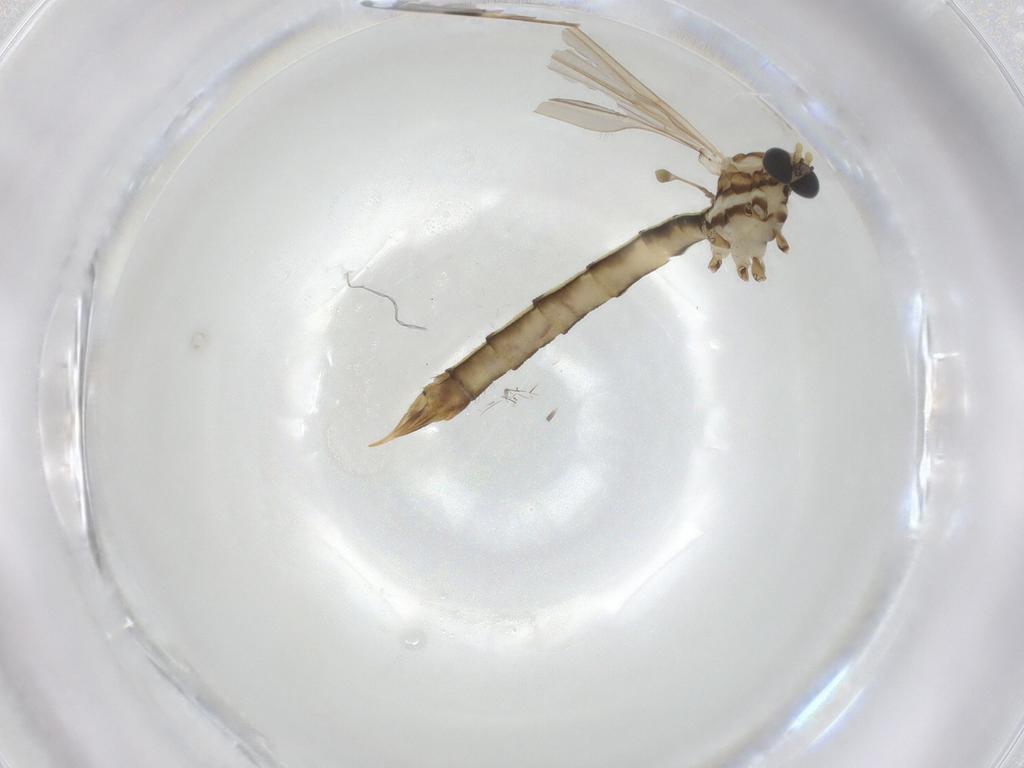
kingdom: Animalia
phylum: Arthropoda
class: Insecta
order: Diptera
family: Limoniidae
